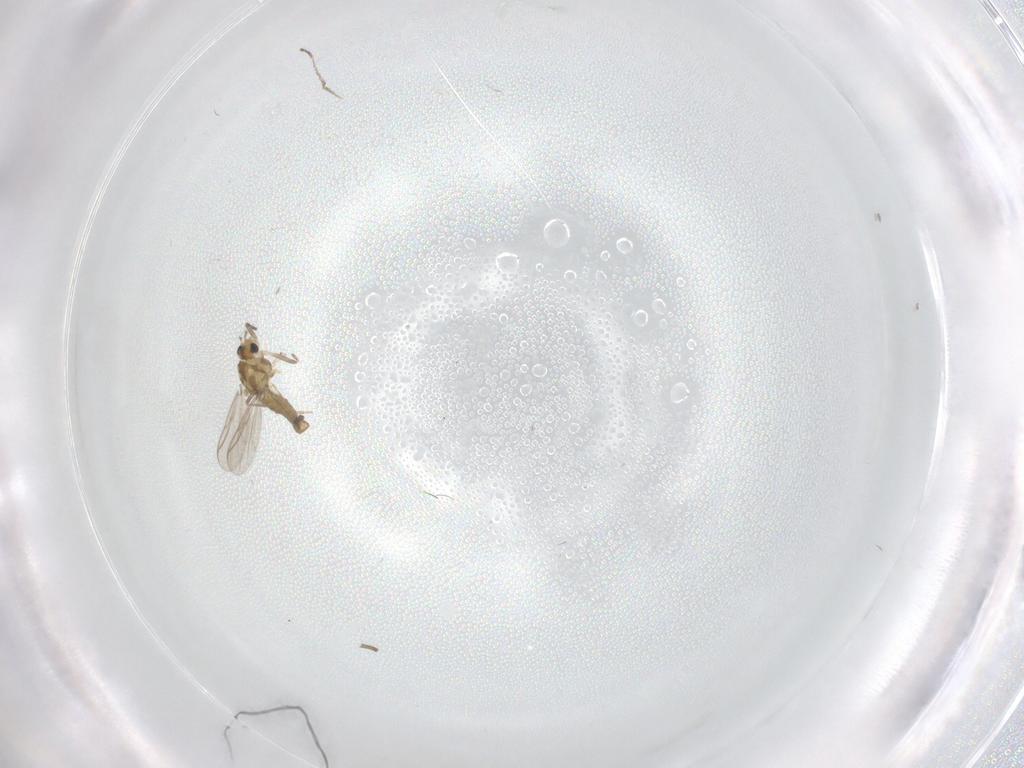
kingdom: Animalia
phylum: Arthropoda
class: Insecta
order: Diptera
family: Chironomidae
